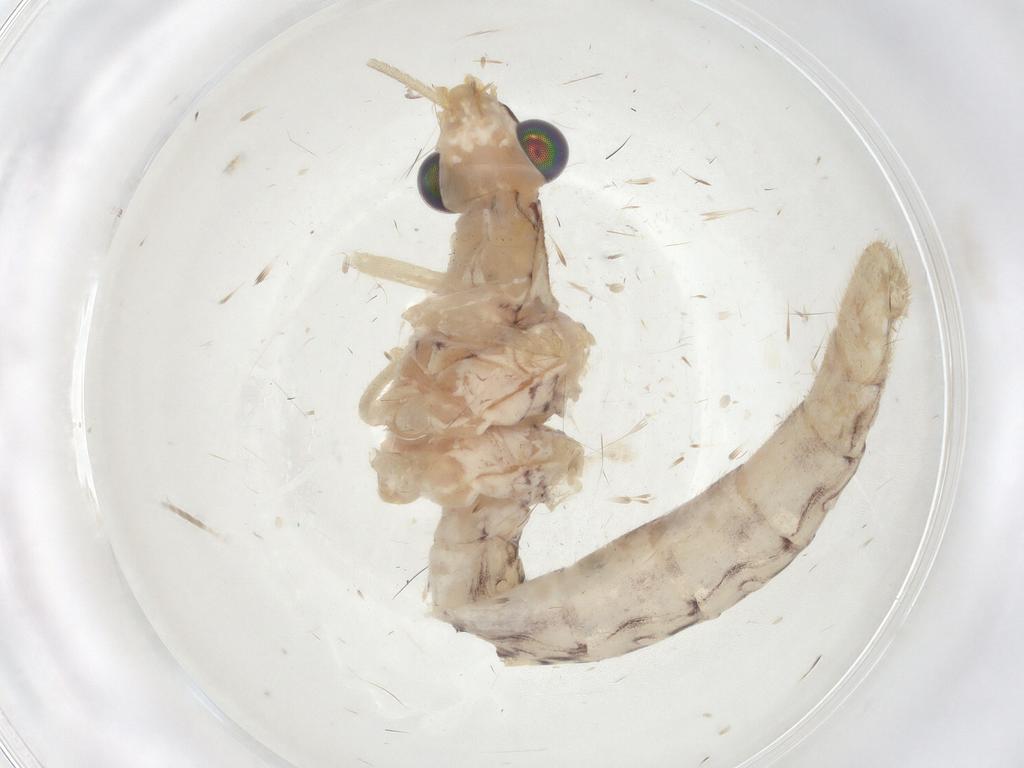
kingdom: Animalia
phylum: Arthropoda
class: Insecta
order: Neuroptera
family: Chrysopidae
